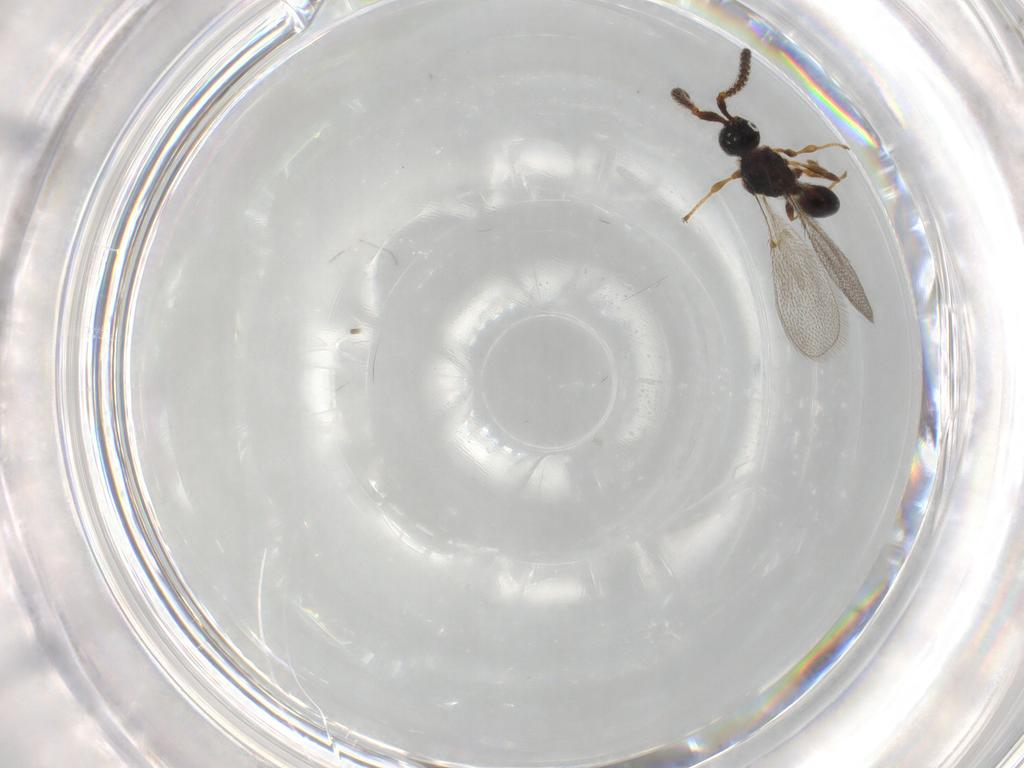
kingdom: Animalia
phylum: Arthropoda
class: Insecta
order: Hymenoptera
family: Diapriidae
